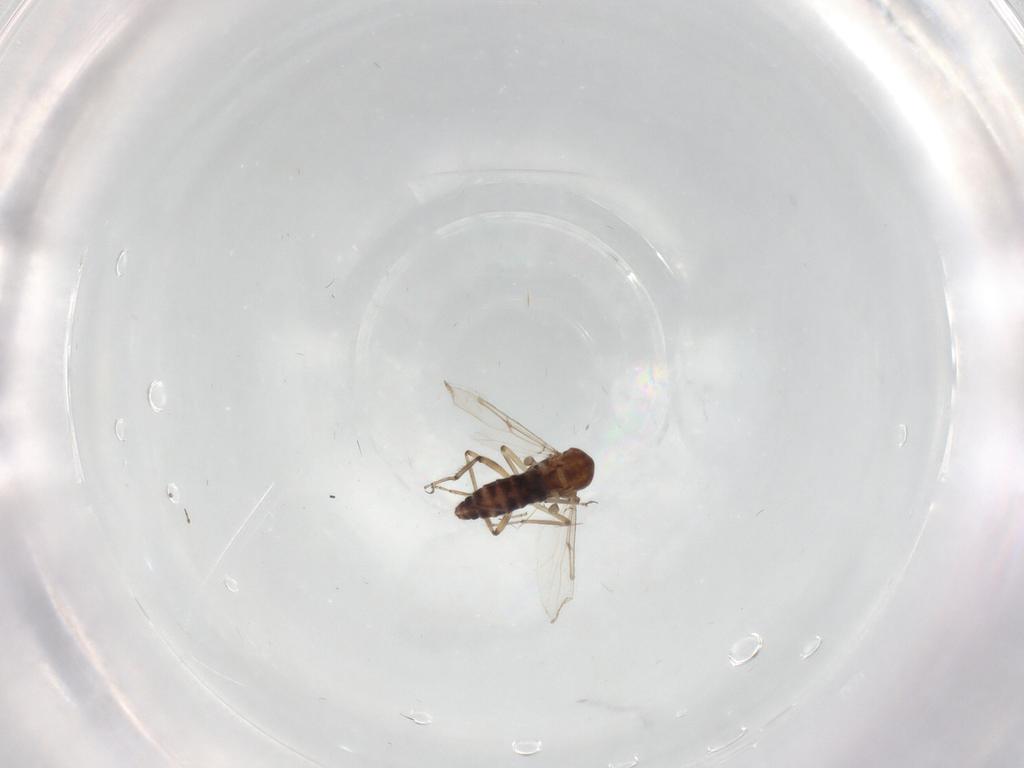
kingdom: Animalia
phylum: Arthropoda
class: Insecta
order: Diptera
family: Ceratopogonidae
